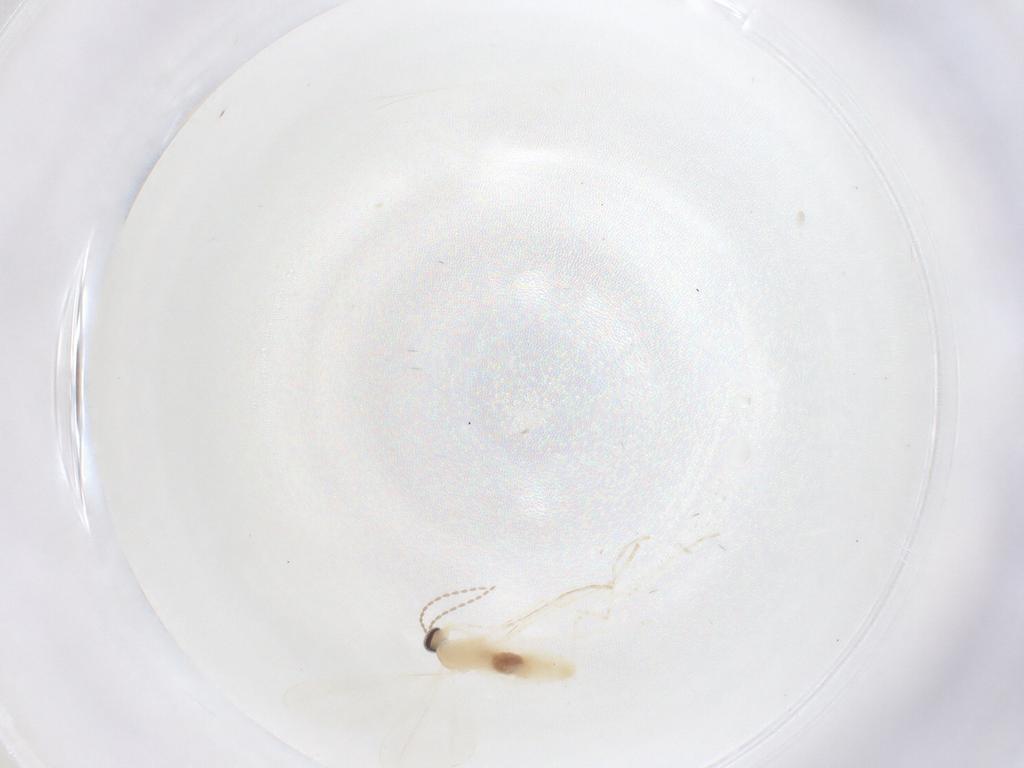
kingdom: Animalia
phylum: Arthropoda
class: Insecta
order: Diptera
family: Cecidomyiidae
